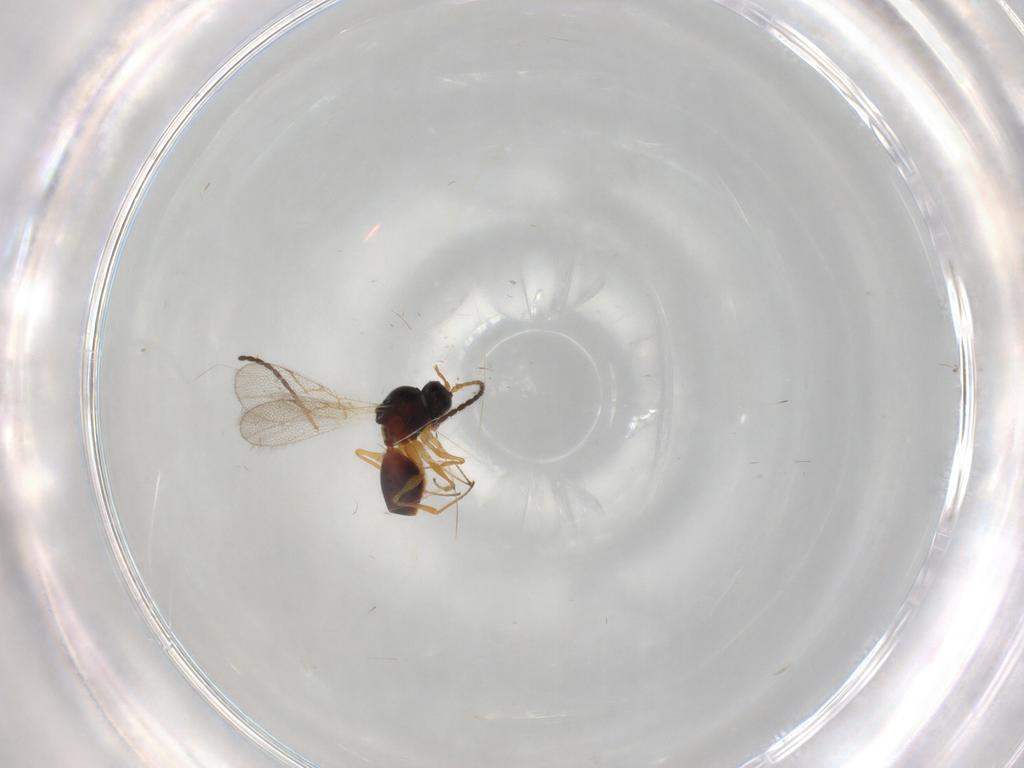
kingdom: Animalia
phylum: Arthropoda
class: Insecta
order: Hymenoptera
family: Figitidae
